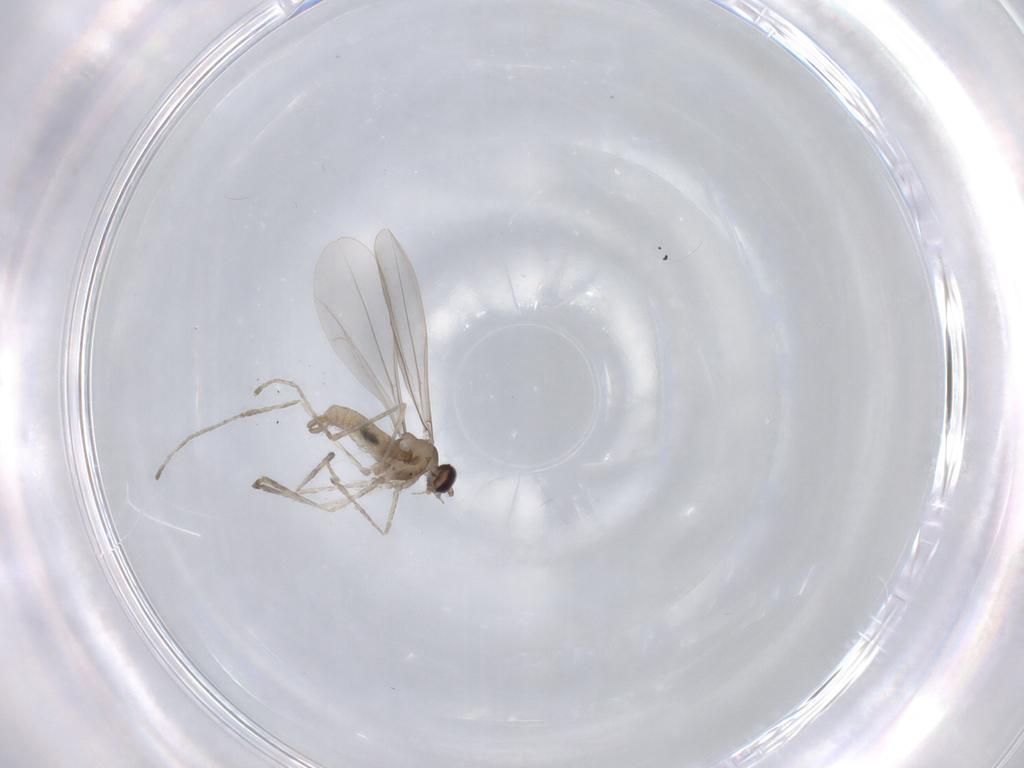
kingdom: Animalia
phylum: Arthropoda
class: Insecta
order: Diptera
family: Cecidomyiidae
